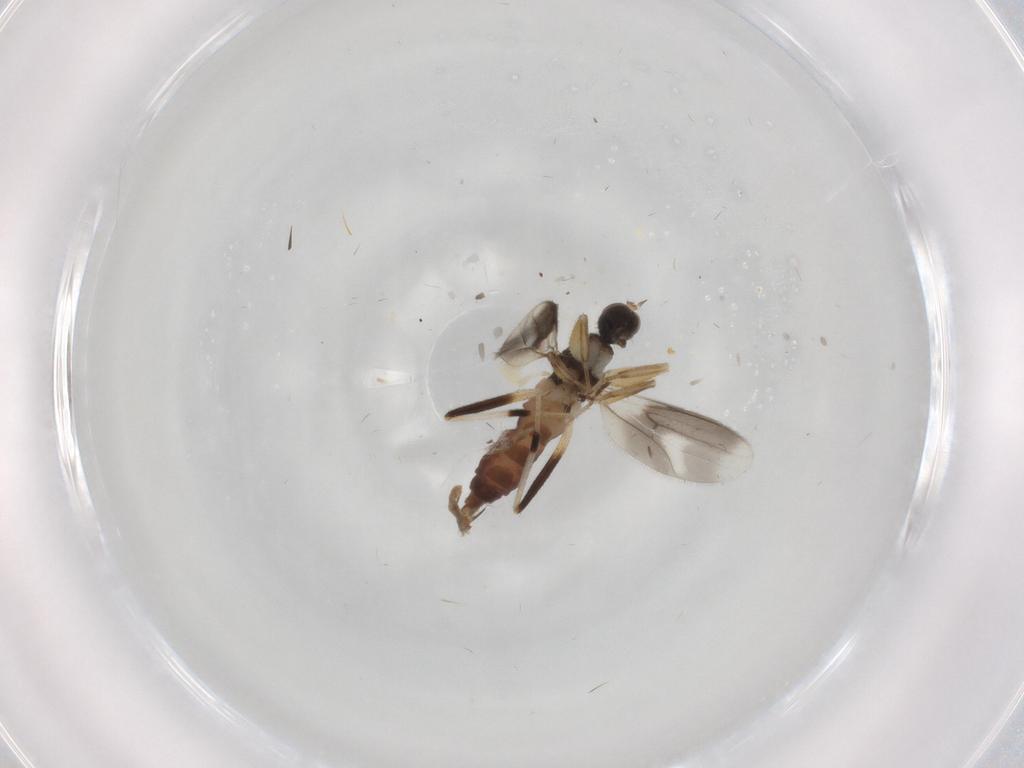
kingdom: Animalia
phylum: Arthropoda
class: Insecta
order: Diptera
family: Hybotidae
